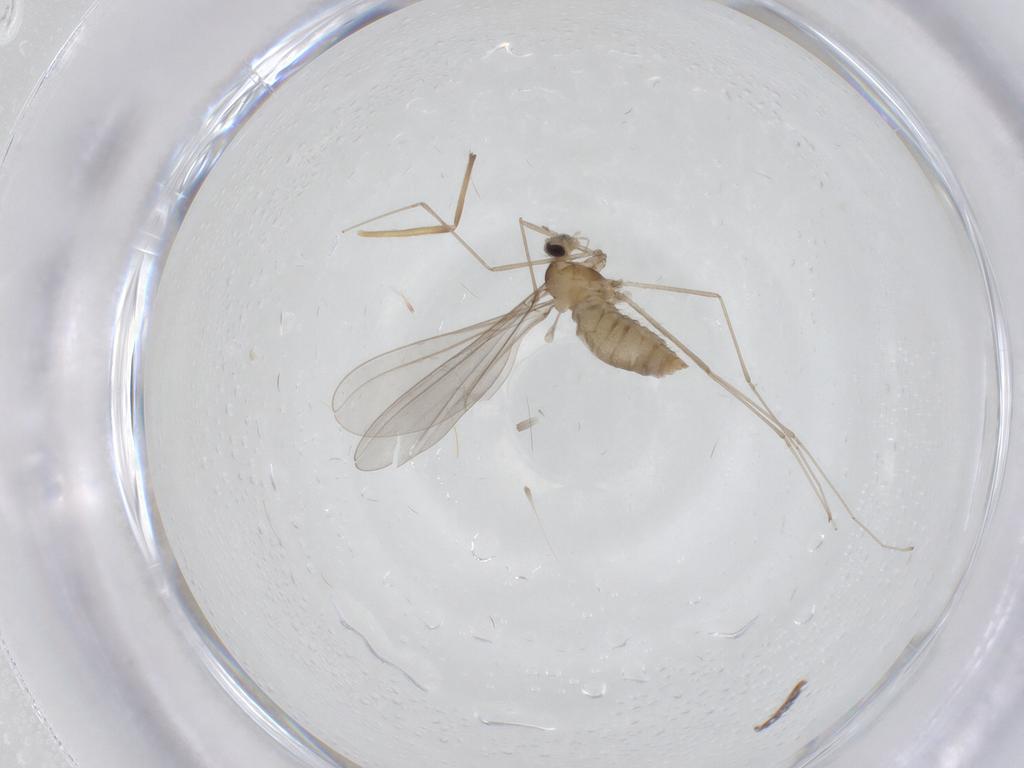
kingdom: Animalia
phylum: Arthropoda
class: Insecta
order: Diptera
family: Cecidomyiidae
